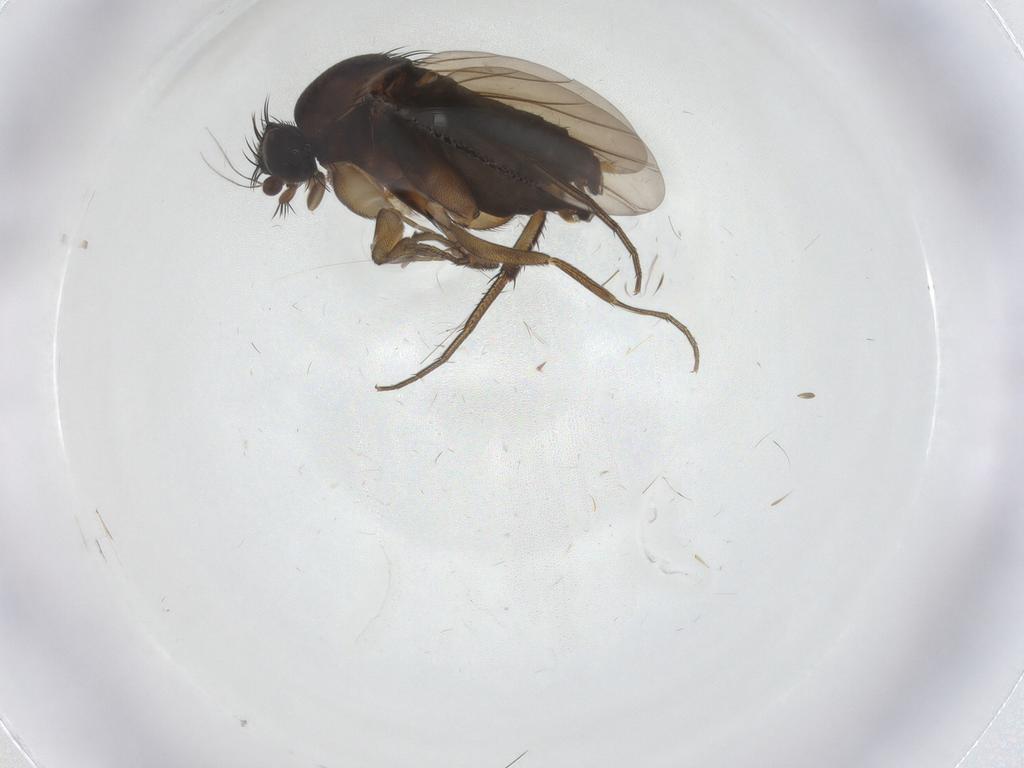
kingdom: Animalia
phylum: Arthropoda
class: Insecta
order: Diptera
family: Phoridae
